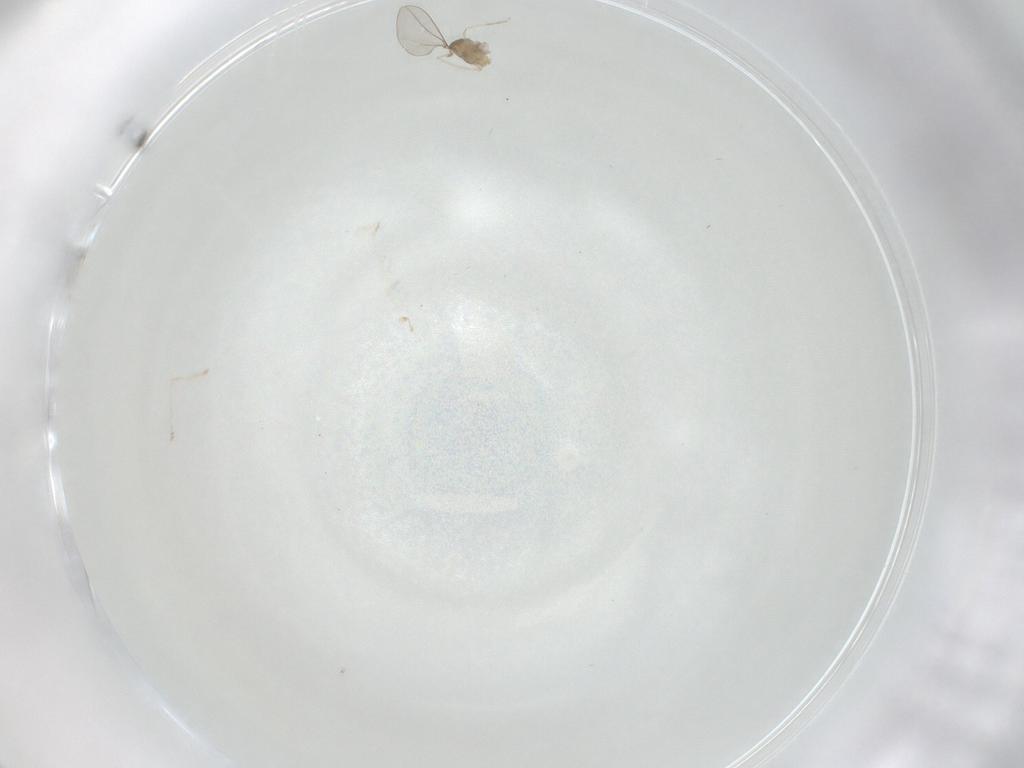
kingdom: Animalia
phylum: Arthropoda
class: Insecta
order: Diptera
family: Cecidomyiidae
